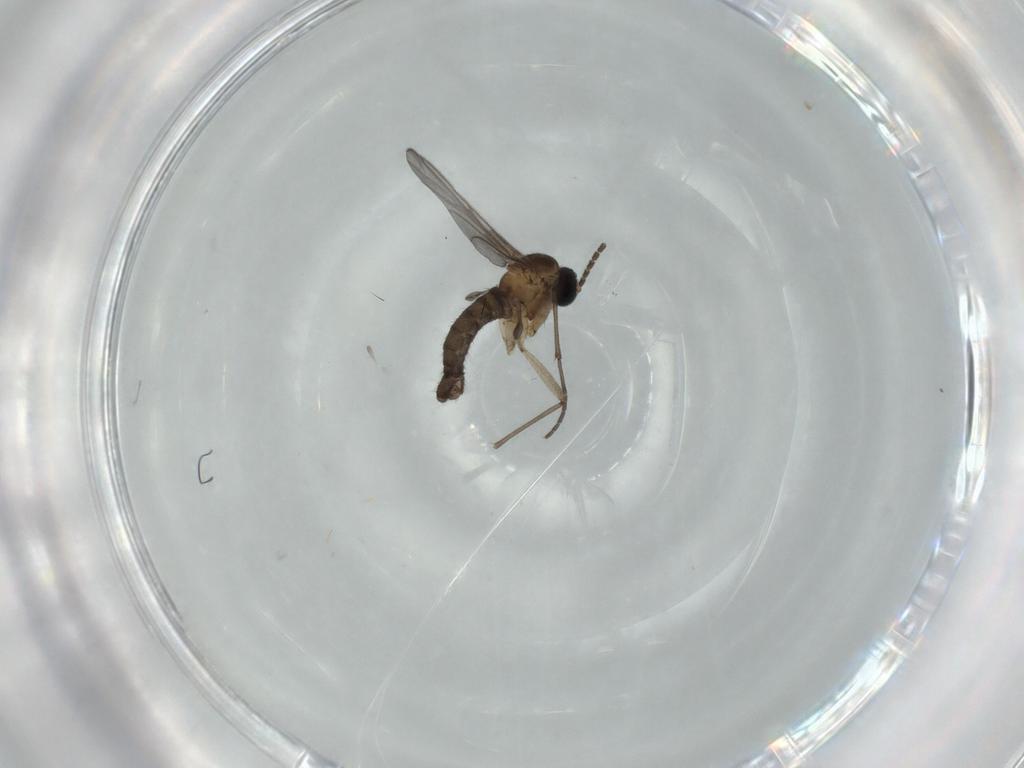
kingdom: Animalia
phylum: Arthropoda
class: Insecta
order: Diptera
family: Sciaridae
